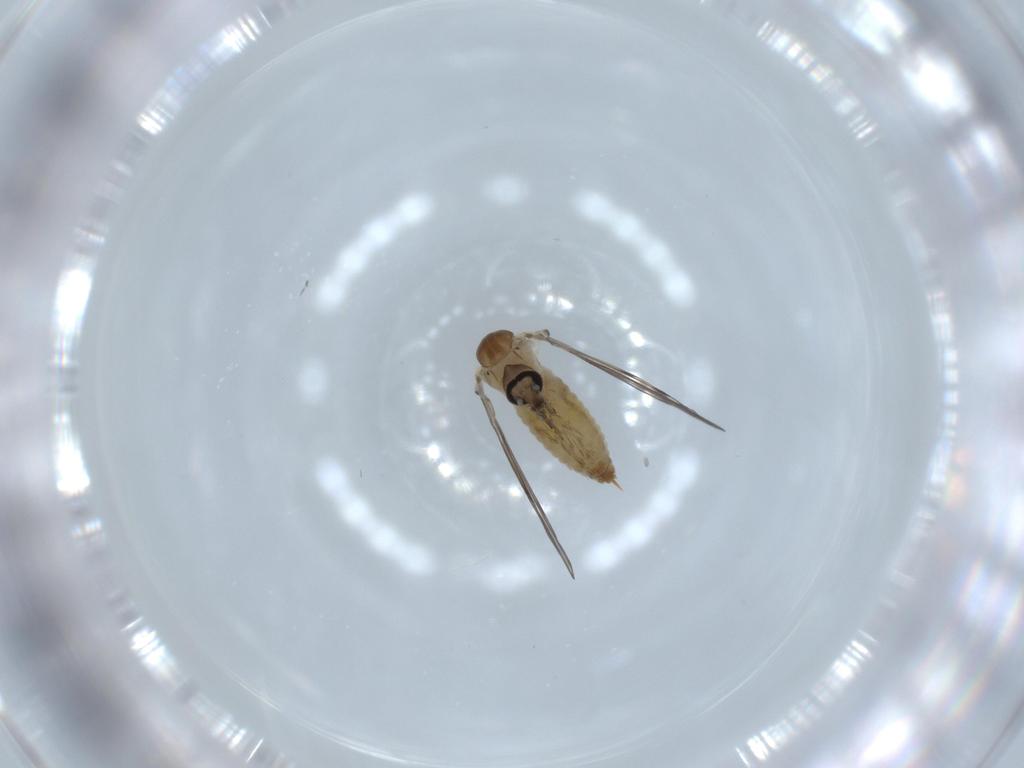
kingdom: Animalia
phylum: Arthropoda
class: Insecta
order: Diptera
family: Psychodidae
